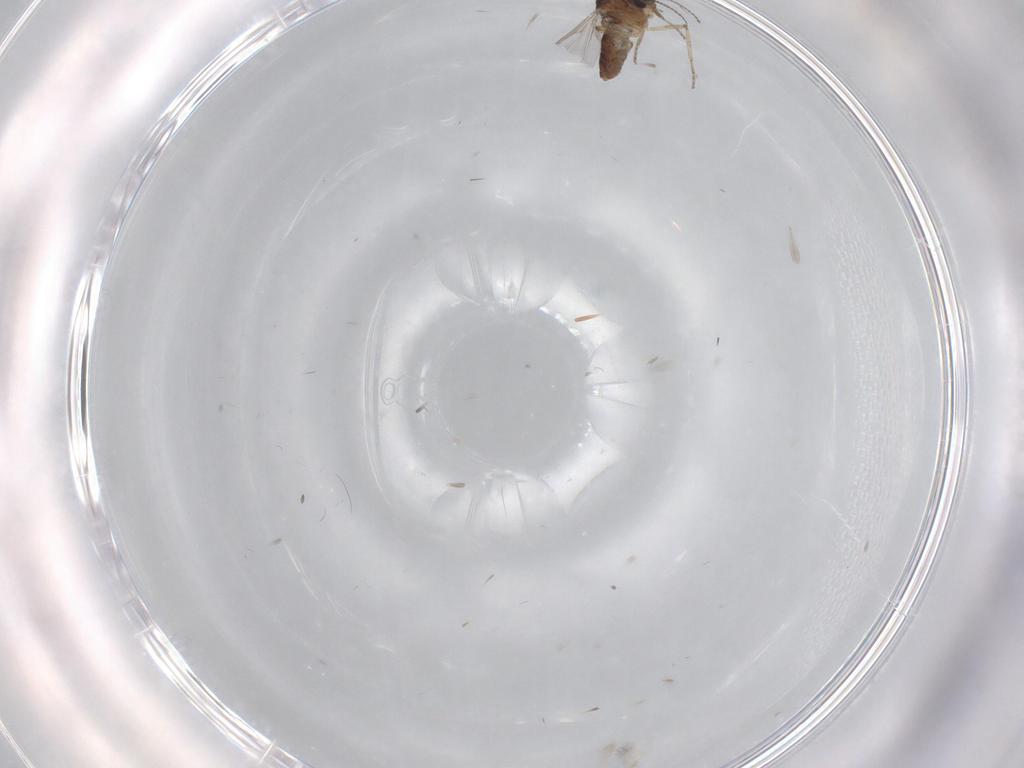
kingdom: Animalia
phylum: Arthropoda
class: Insecta
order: Diptera
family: Ceratopogonidae
